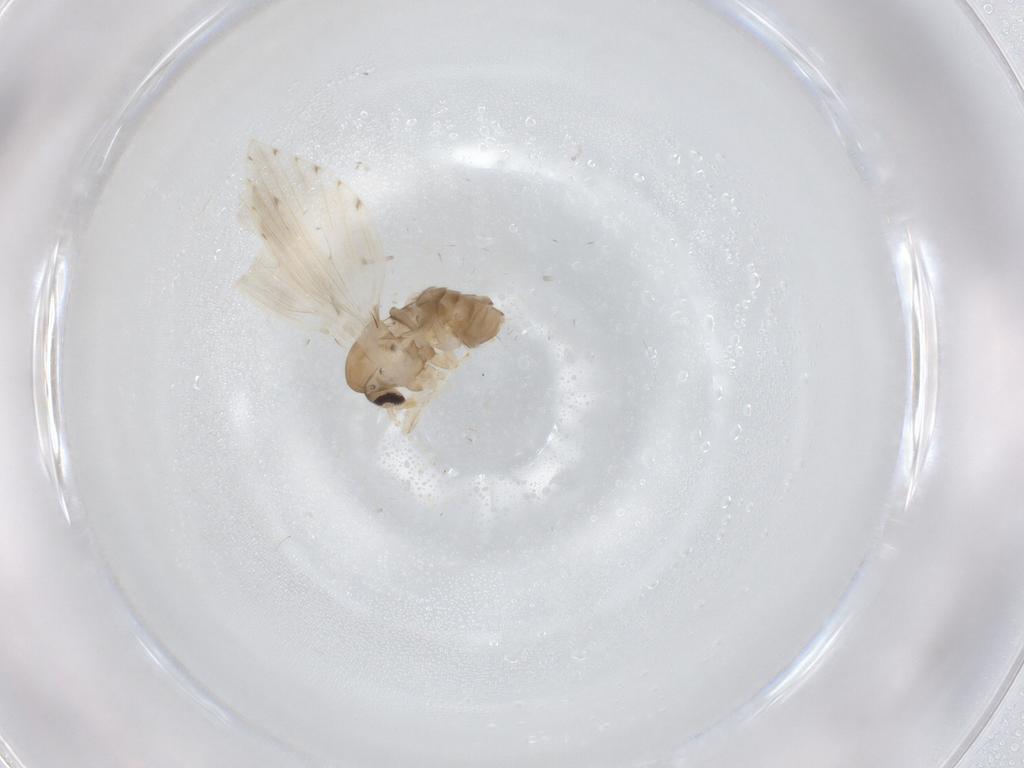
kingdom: Animalia
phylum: Arthropoda
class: Insecta
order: Diptera
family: Psychodidae
